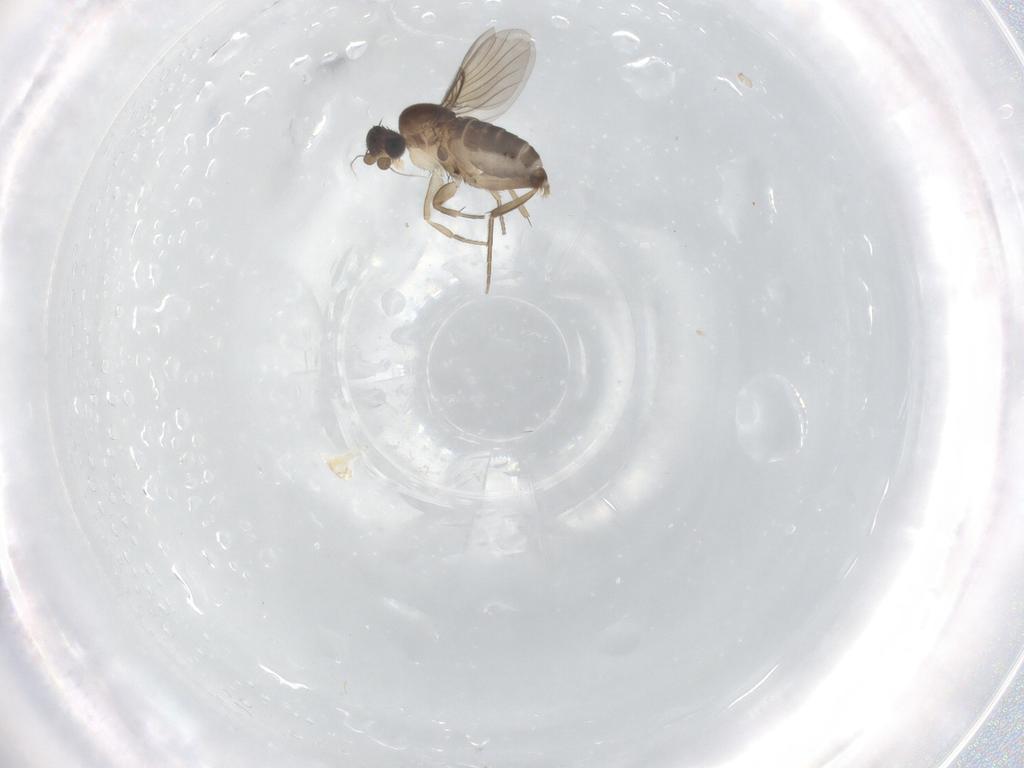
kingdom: Animalia
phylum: Arthropoda
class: Insecta
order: Diptera
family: Phoridae
